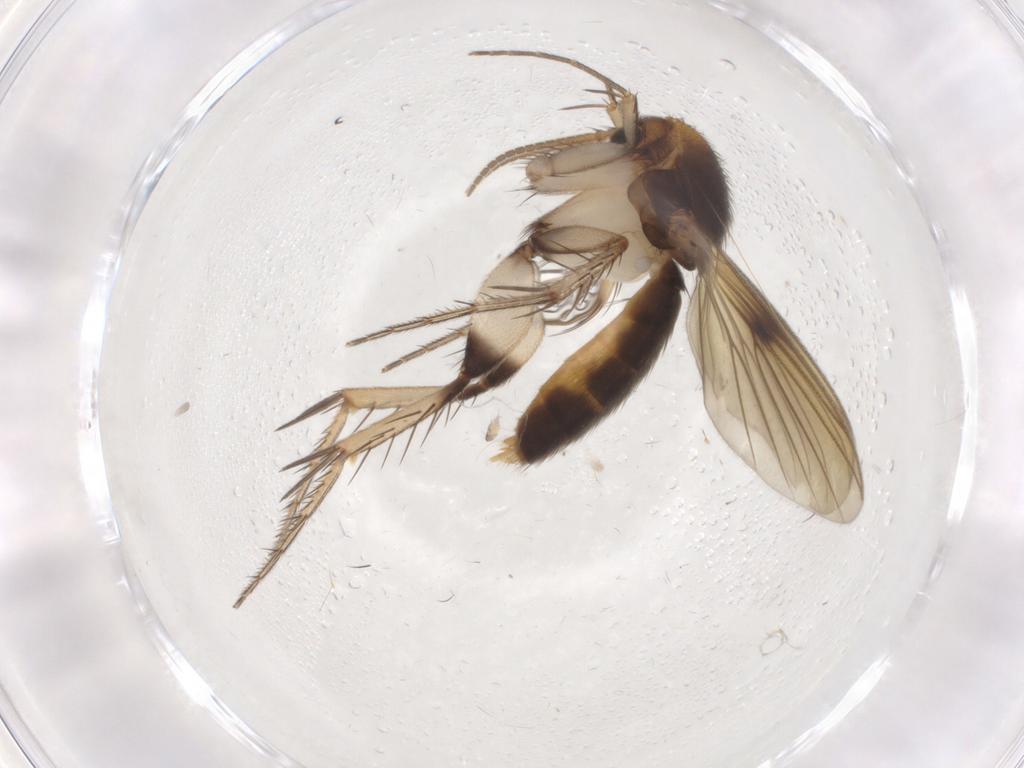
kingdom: Animalia
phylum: Arthropoda
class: Insecta
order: Diptera
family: Mycetophilidae
